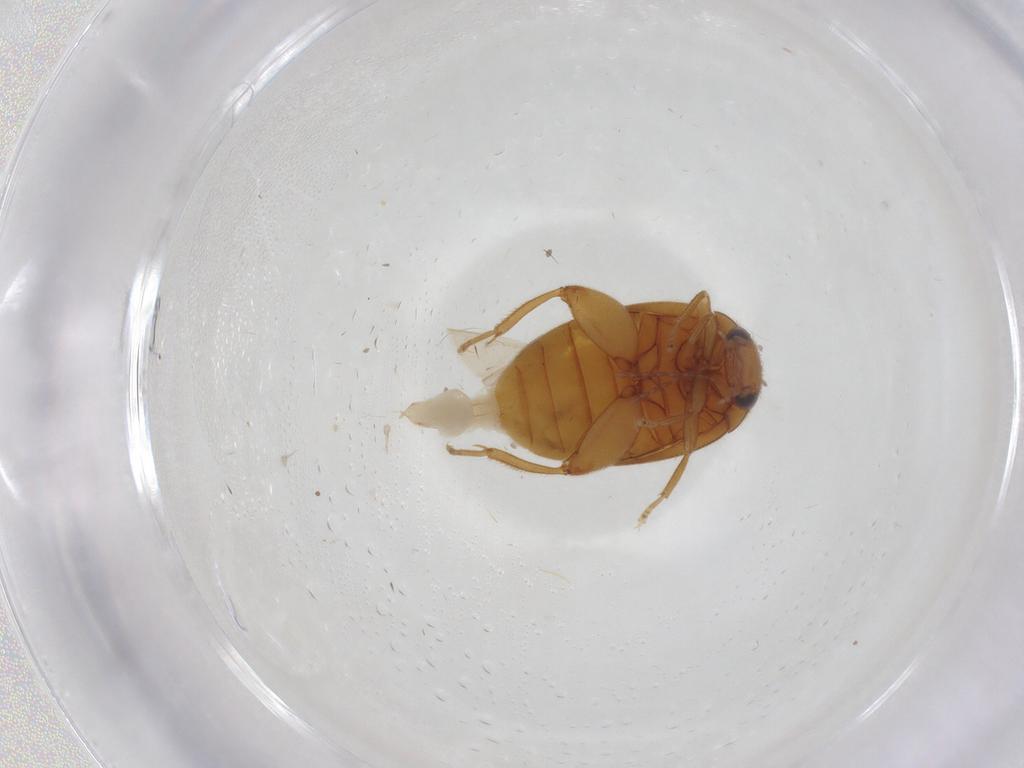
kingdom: Animalia
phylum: Arthropoda
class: Insecta
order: Coleoptera
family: Scirtidae
